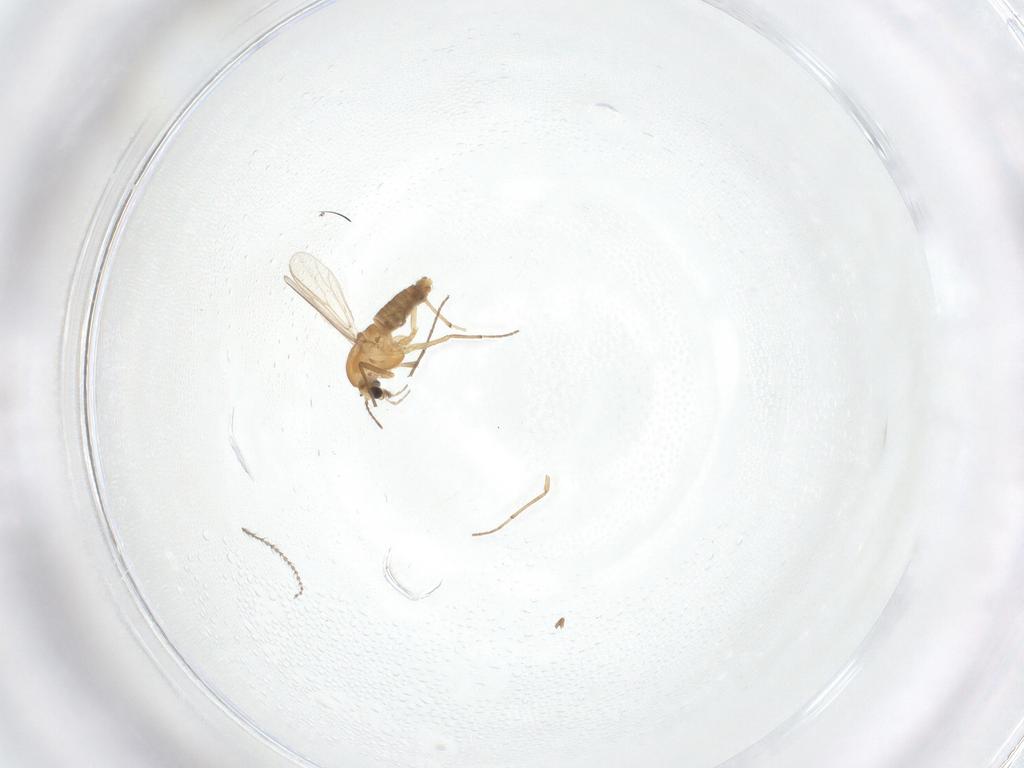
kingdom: Animalia
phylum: Arthropoda
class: Insecta
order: Diptera
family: Chironomidae
